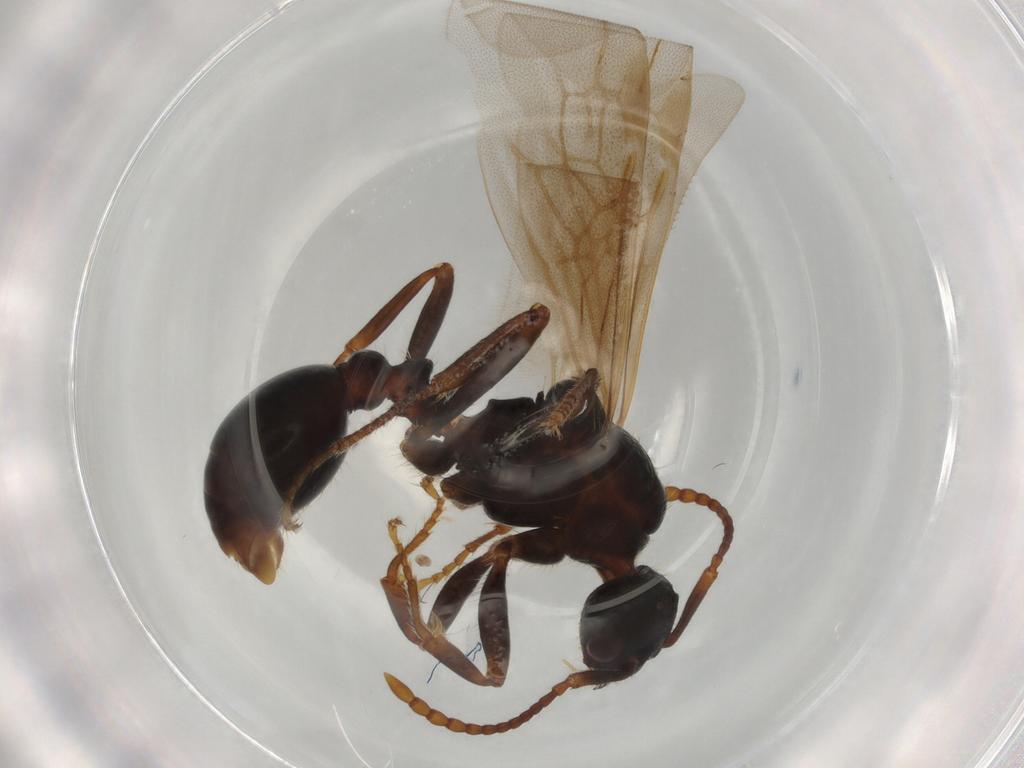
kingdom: Animalia
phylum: Arthropoda
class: Insecta
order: Hymenoptera
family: Formicidae
